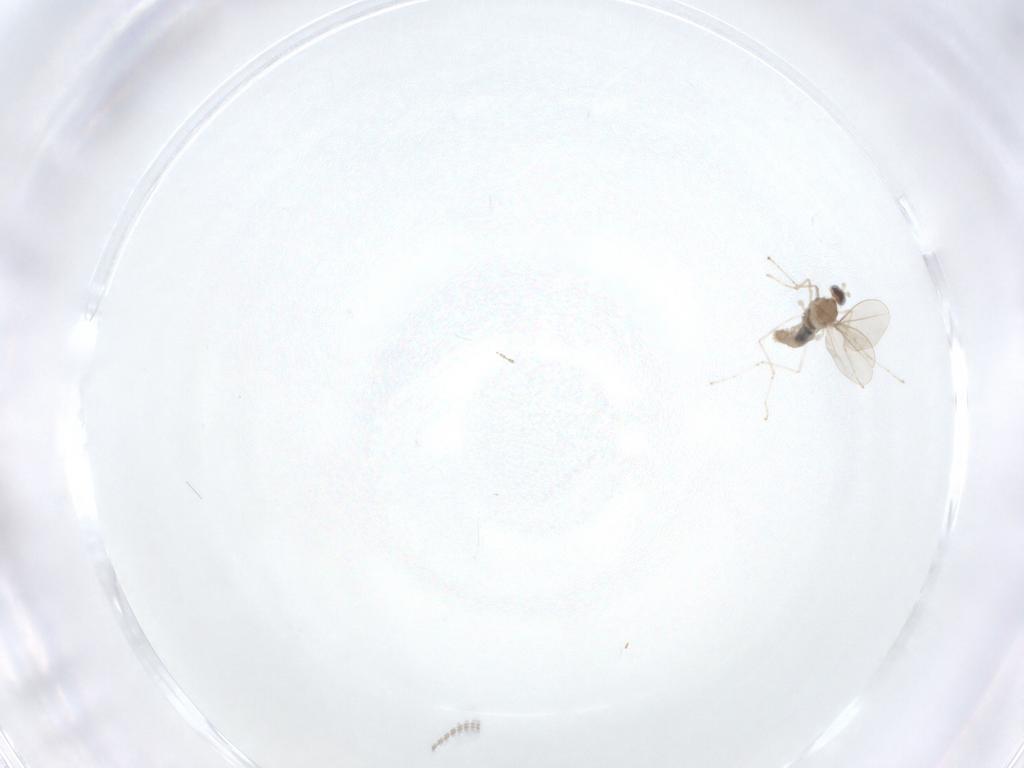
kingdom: Animalia
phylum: Arthropoda
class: Insecta
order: Diptera
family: Cecidomyiidae
